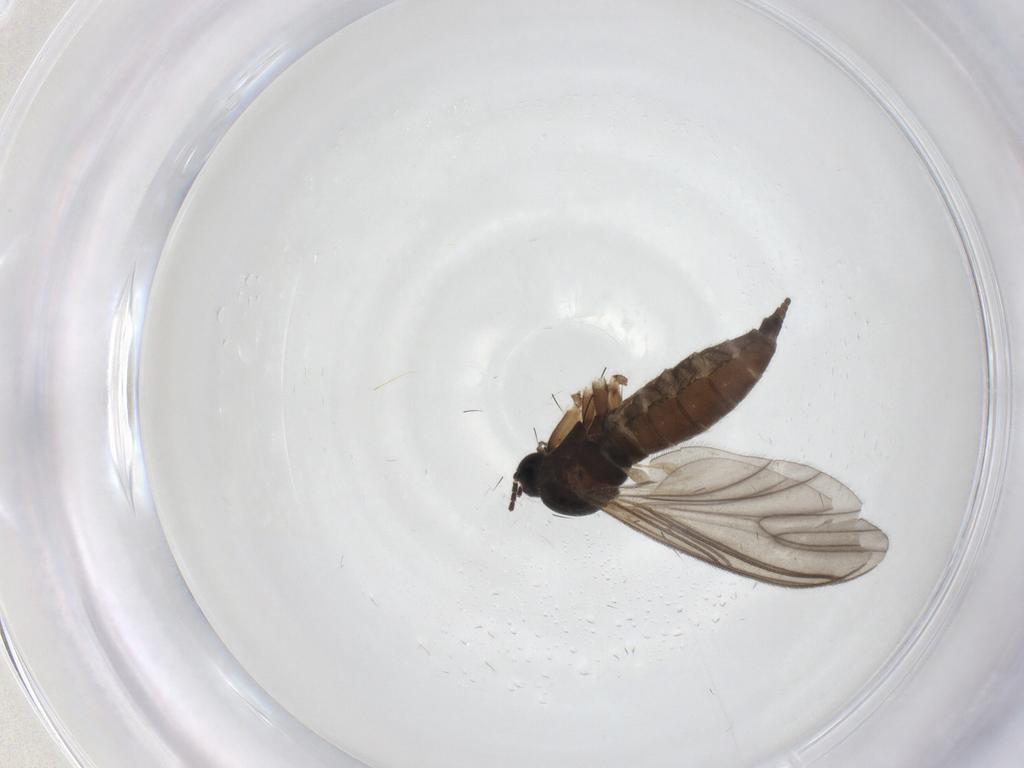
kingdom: Animalia
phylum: Arthropoda
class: Insecta
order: Diptera
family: Sciaridae
